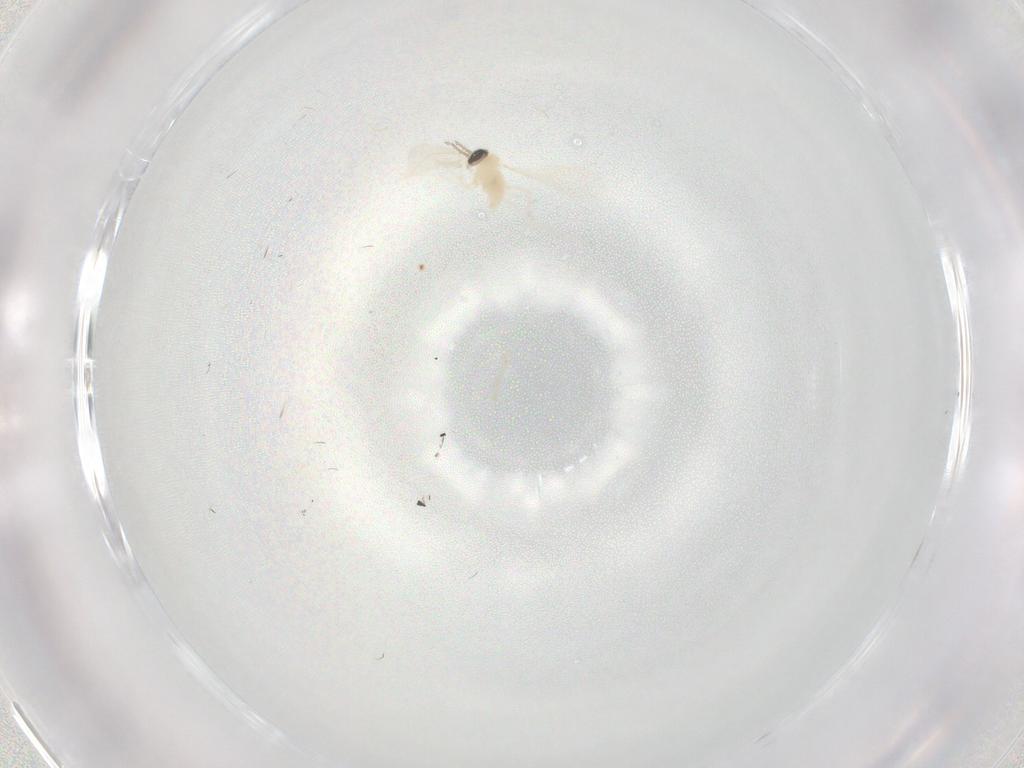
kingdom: Animalia
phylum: Arthropoda
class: Insecta
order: Diptera
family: Cecidomyiidae
